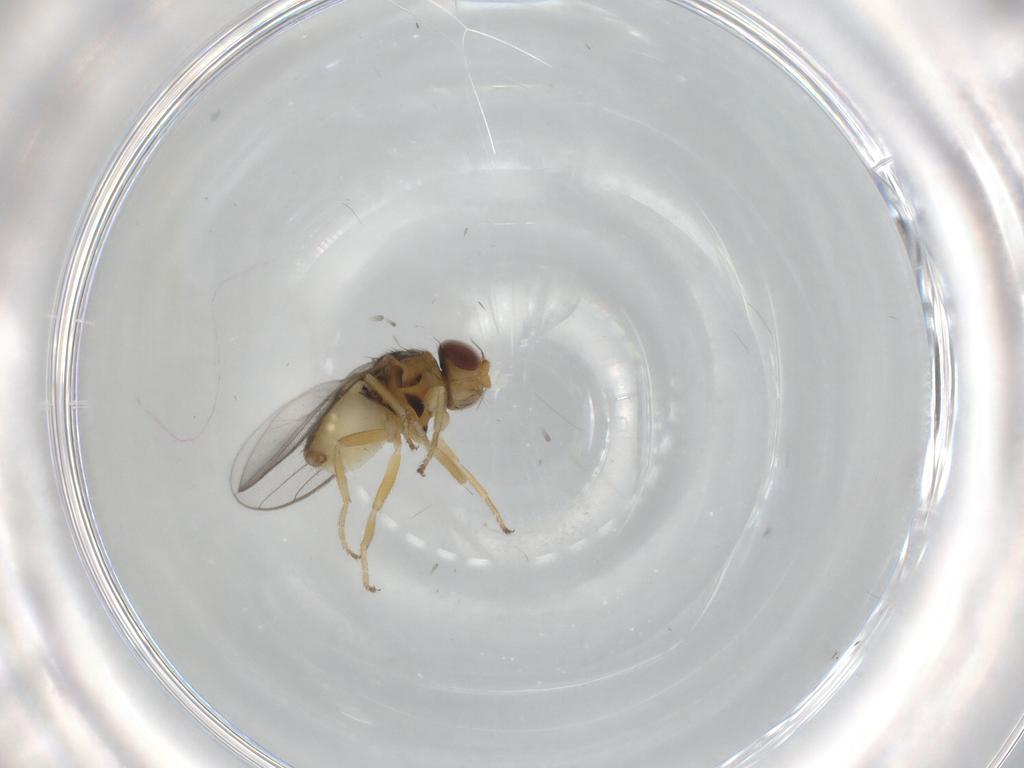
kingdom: Animalia
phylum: Arthropoda
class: Insecta
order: Diptera
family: Chloropidae
